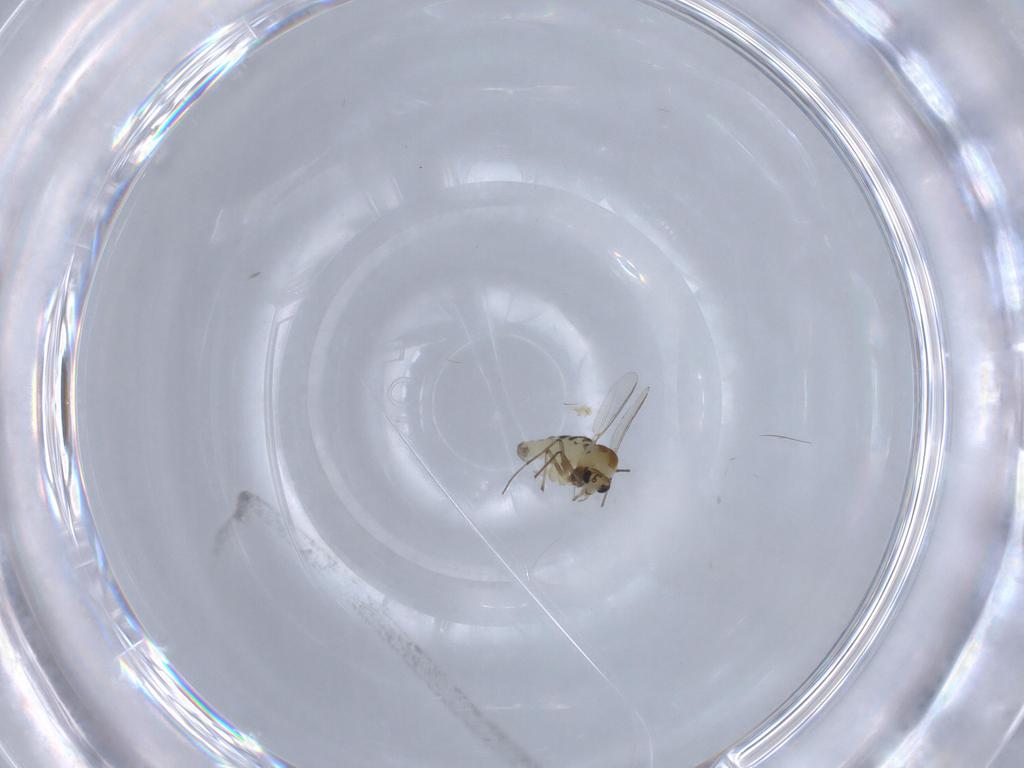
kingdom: Animalia
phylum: Arthropoda
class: Insecta
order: Diptera
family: Chironomidae
